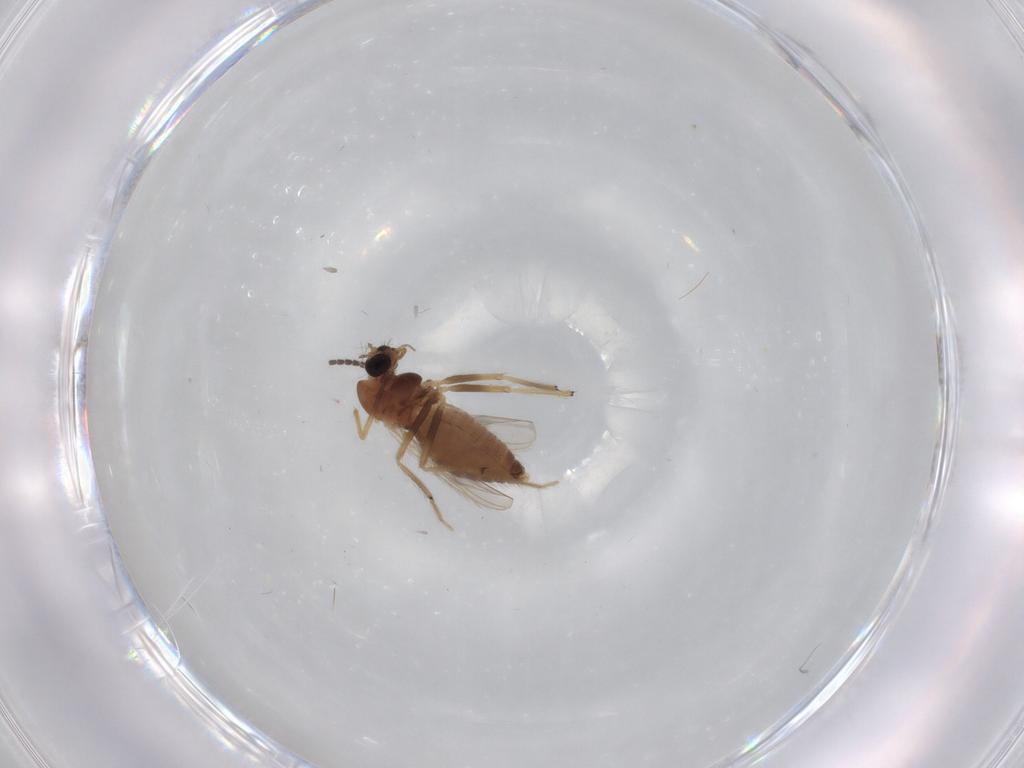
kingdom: Animalia
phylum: Arthropoda
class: Insecta
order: Diptera
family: Chironomidae
